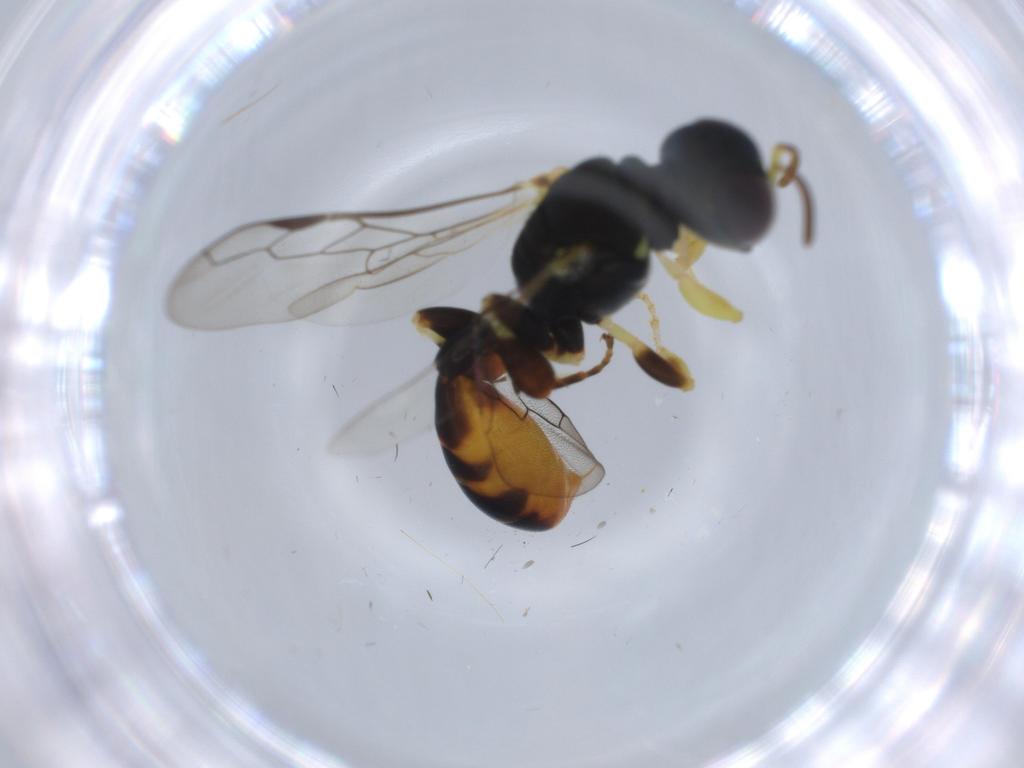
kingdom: Animalia
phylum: Arthropoda
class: Insecta
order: Hymenoptera
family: Crabronidae
